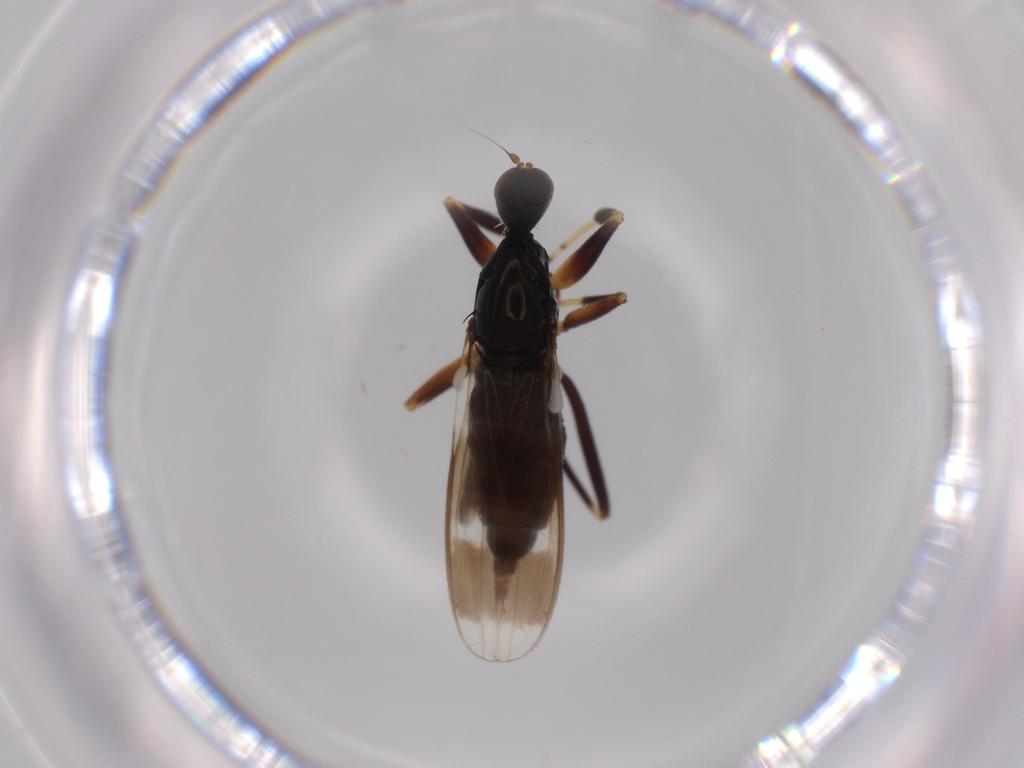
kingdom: Animalia
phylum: Arthropoda
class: Insecta
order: Diptera
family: Hybotidae
